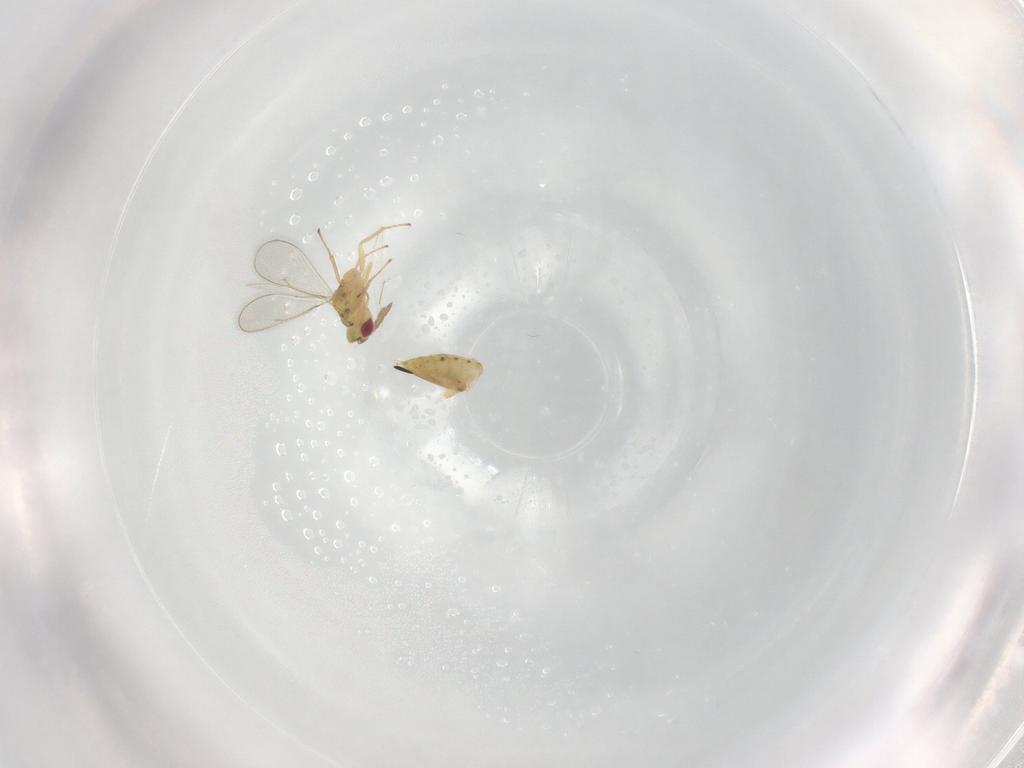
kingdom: Animalia
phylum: Arthropoda
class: Insecta
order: Hymenoptera
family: Eulophidae
